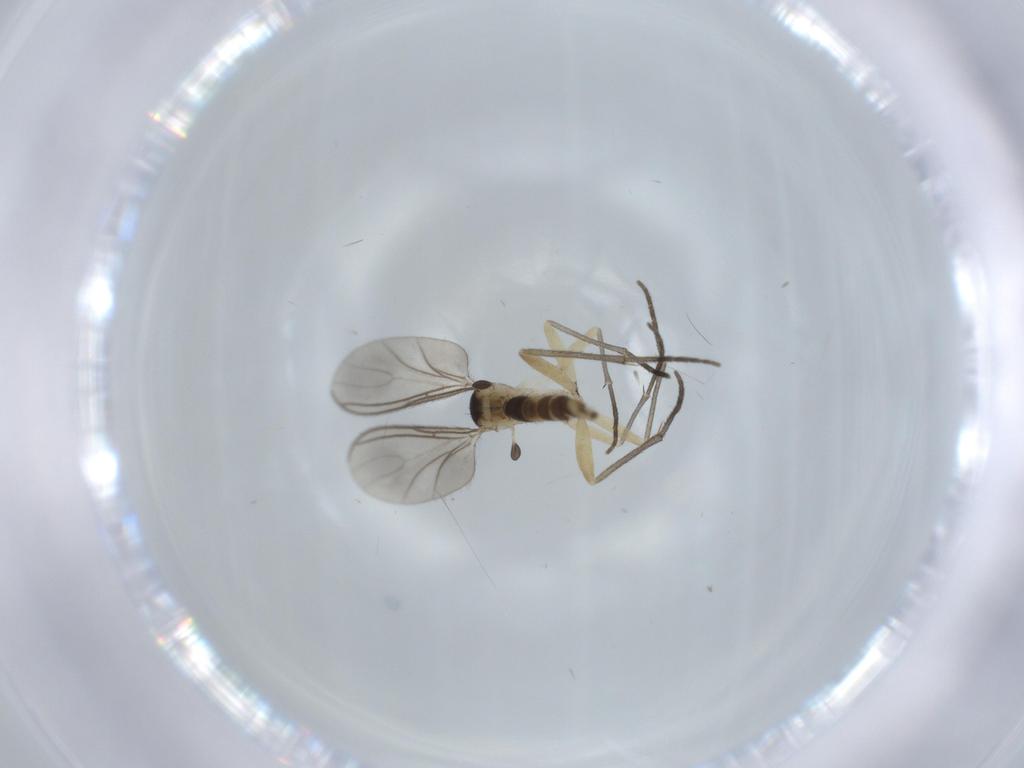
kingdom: Animalia
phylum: Arthropoda
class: Insecta
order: Diptera
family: Sciaridae
